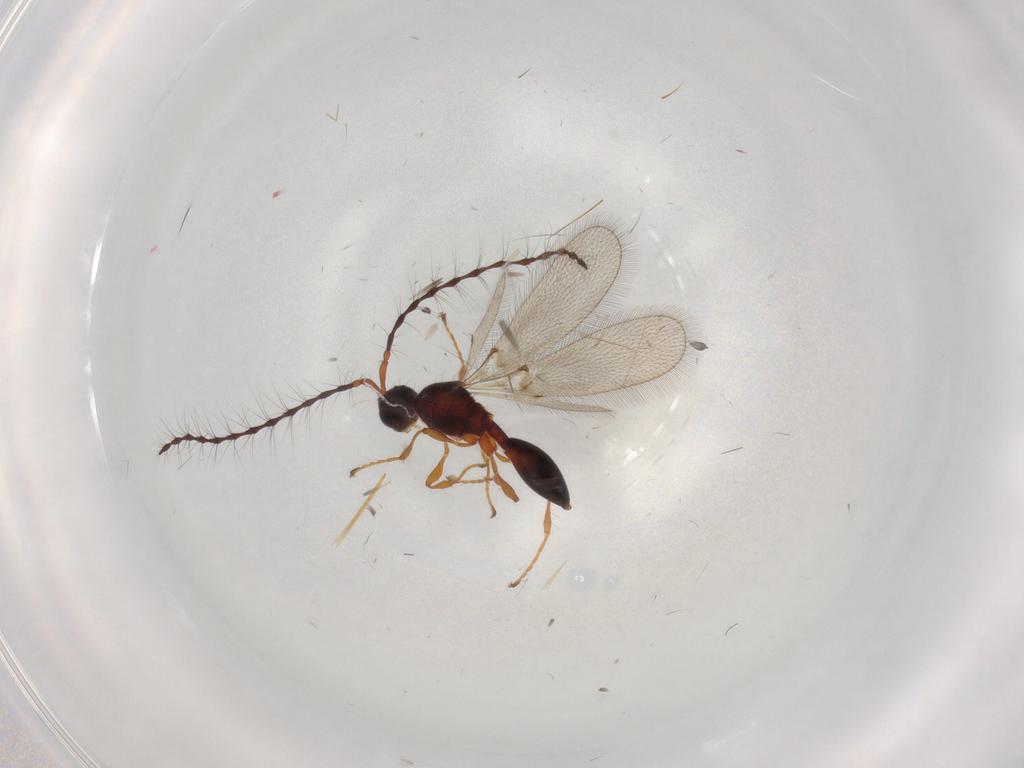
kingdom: Animalia
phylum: Arthropoda
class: Insecta
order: Hymenoptera
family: Diapriidae
